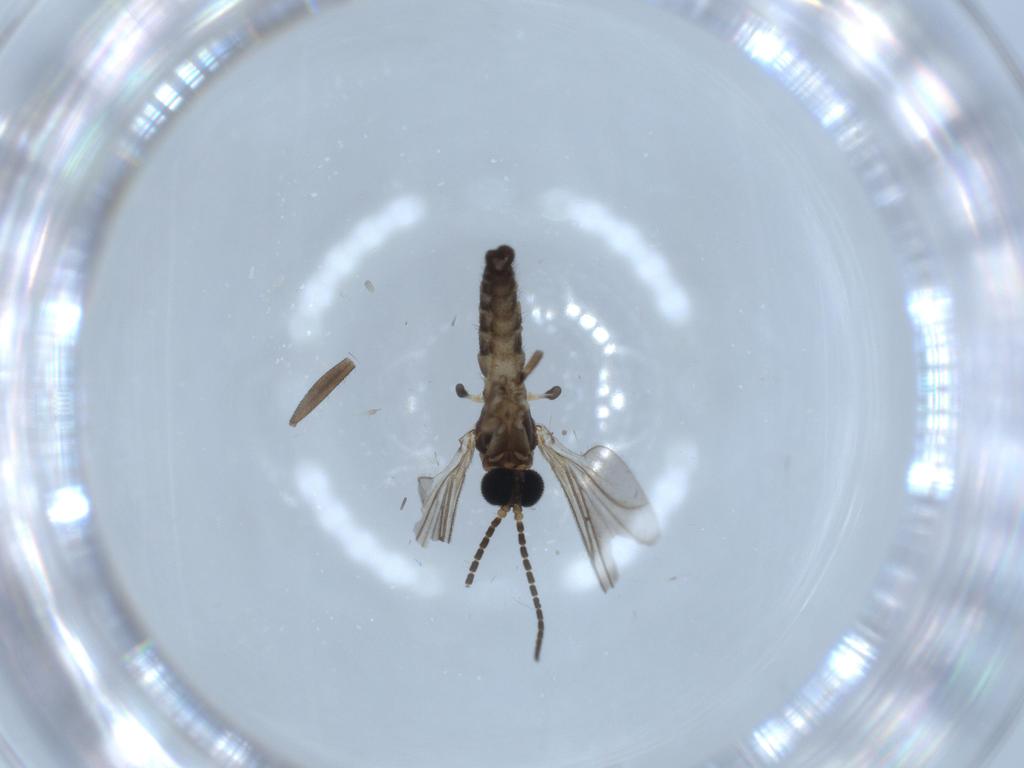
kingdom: Animalia
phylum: Arthropoda
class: Insecta
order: Diptera
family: Sciaridae
